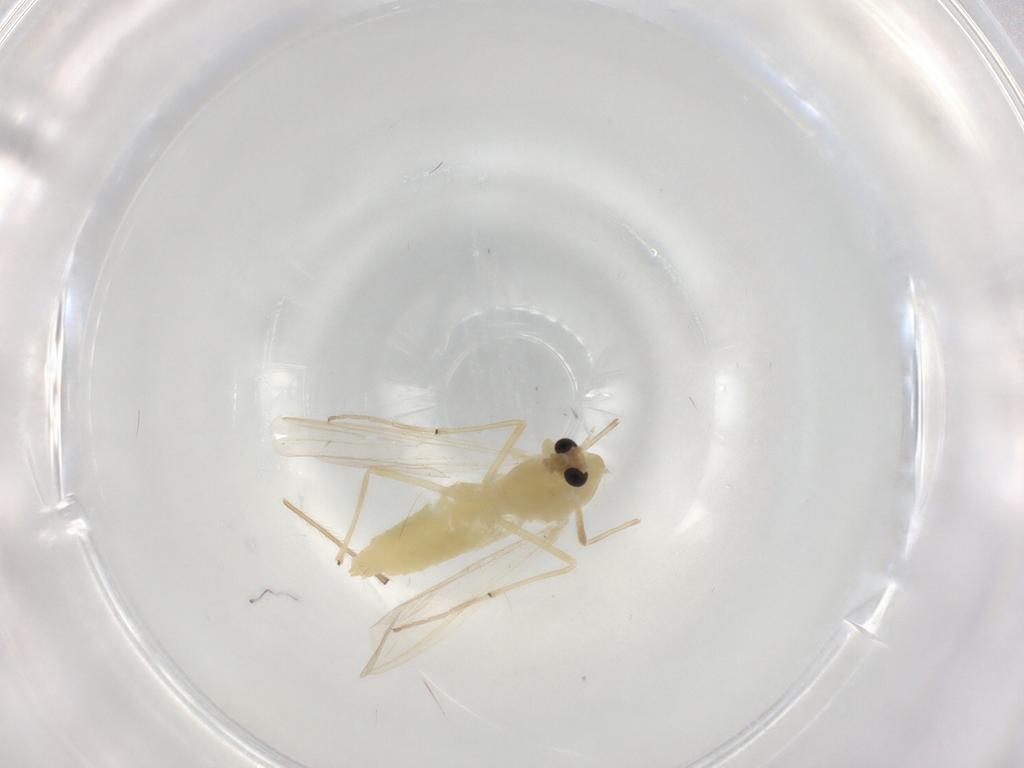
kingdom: Animalia
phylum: Arthropoda
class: Insecta
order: Diptera
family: Chironomidae
